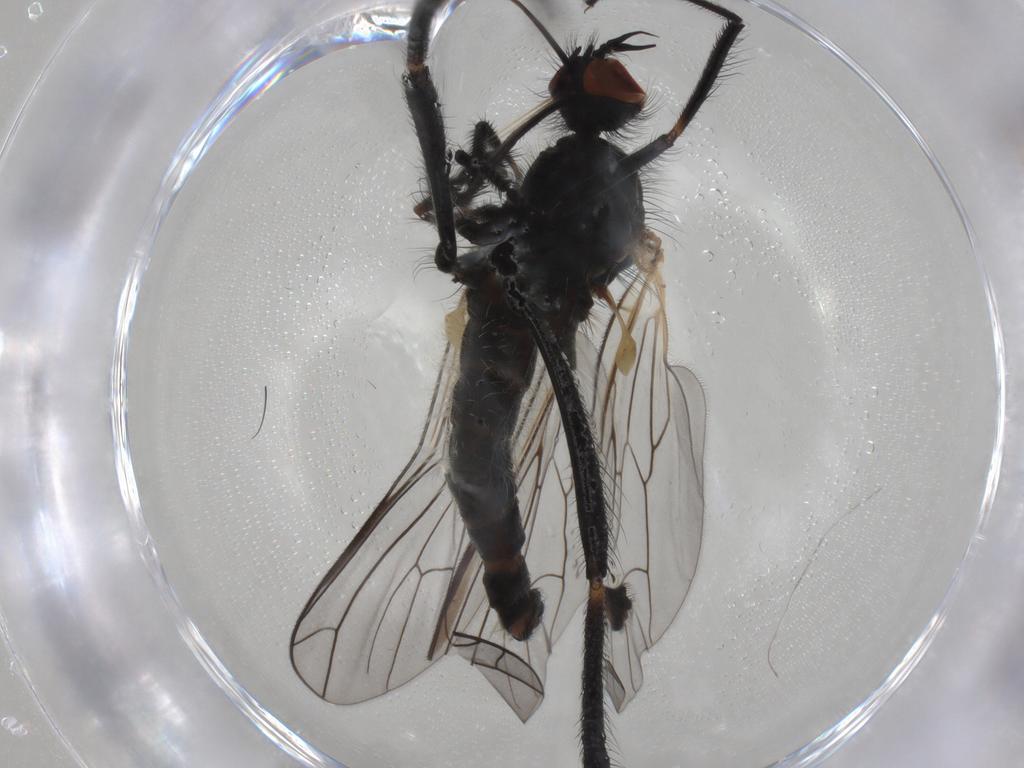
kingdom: Animalia
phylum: Arthropoda
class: Insecta
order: Diptera
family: Empididae
